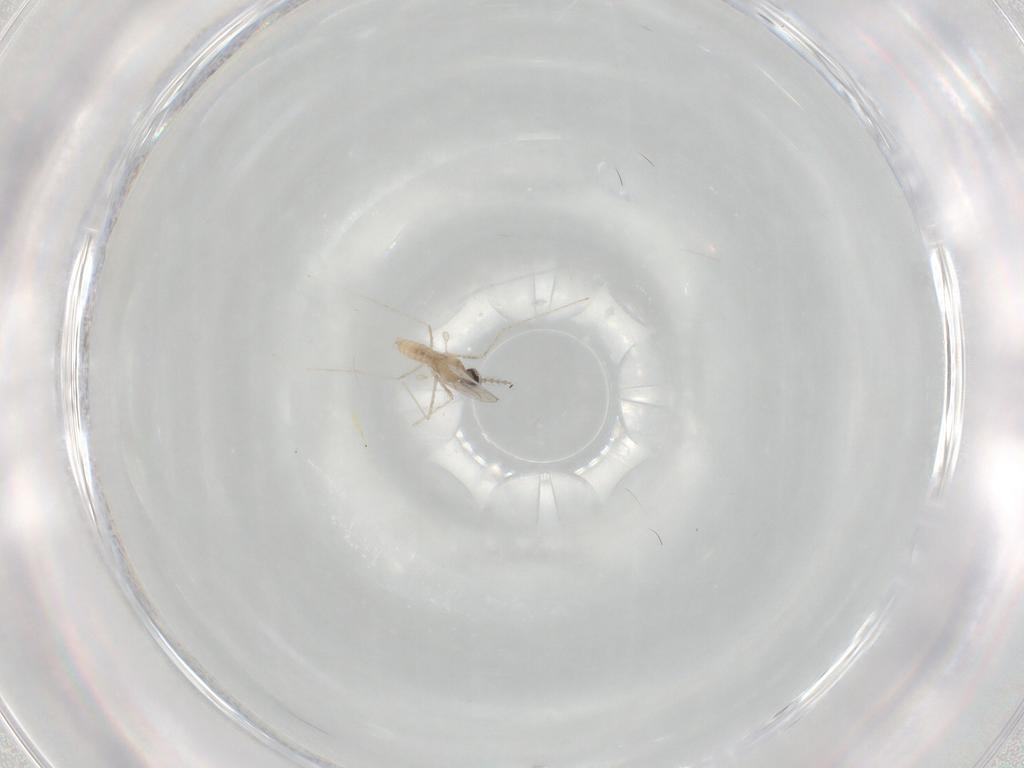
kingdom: Animalia
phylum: Arthropoda
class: Insecta
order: Diptera
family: Cecidomyiidae
